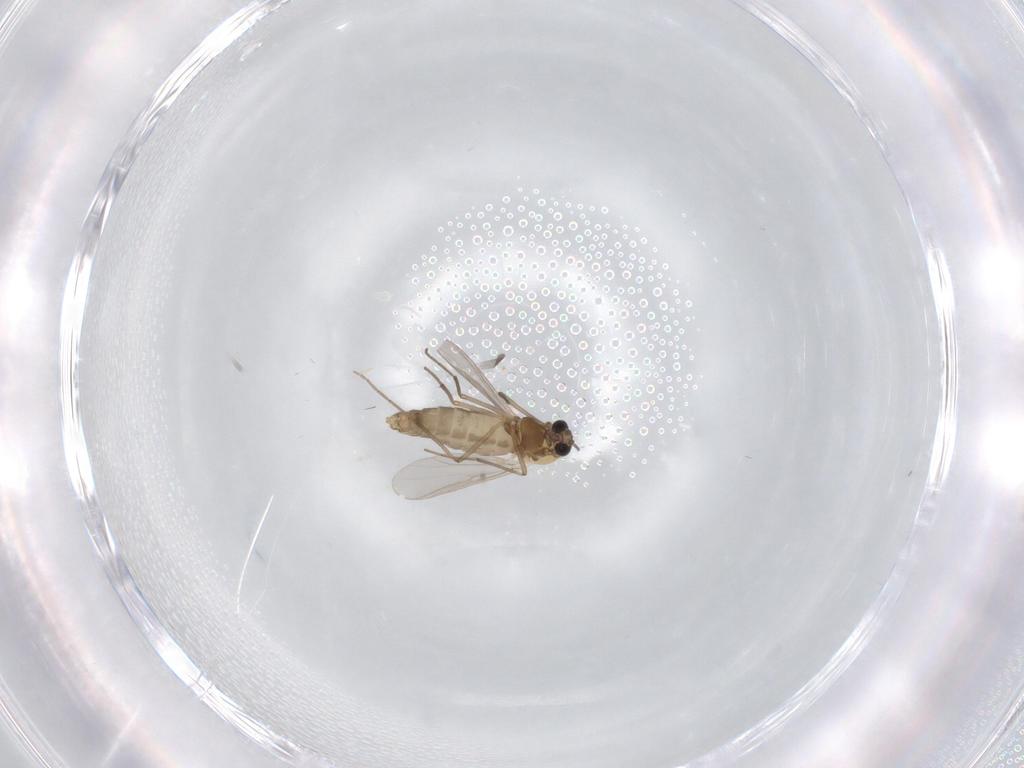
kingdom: Animalia
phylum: Arthropoda
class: Insecta
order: Diptera
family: Chironomidae
